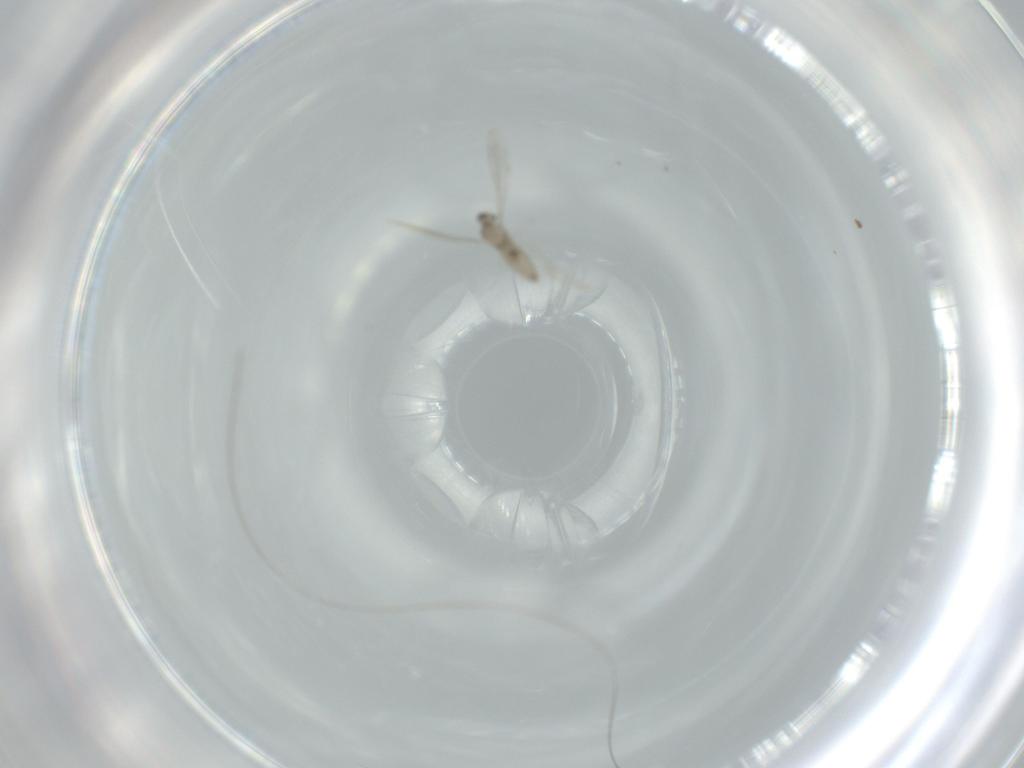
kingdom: Animalia
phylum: Arthropoda
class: Insecta
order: Diptera
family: Cecidomyiidae
